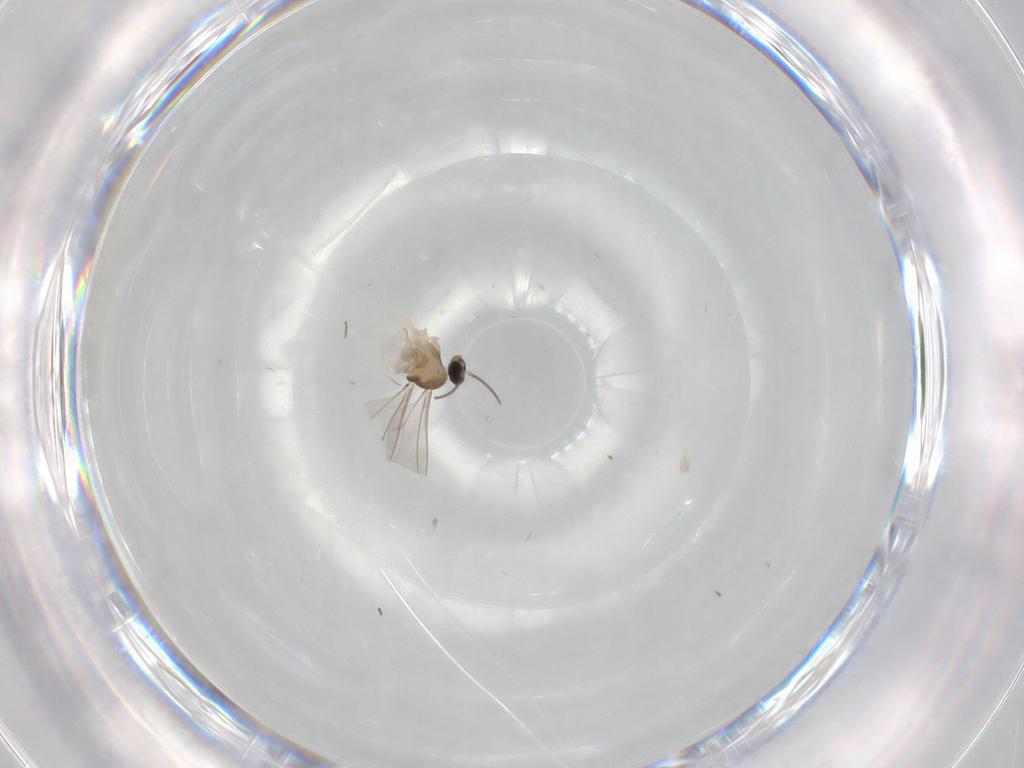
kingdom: Animalia
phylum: Arthropoda
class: Insecta
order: Diptera
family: Cecidomyiidae
